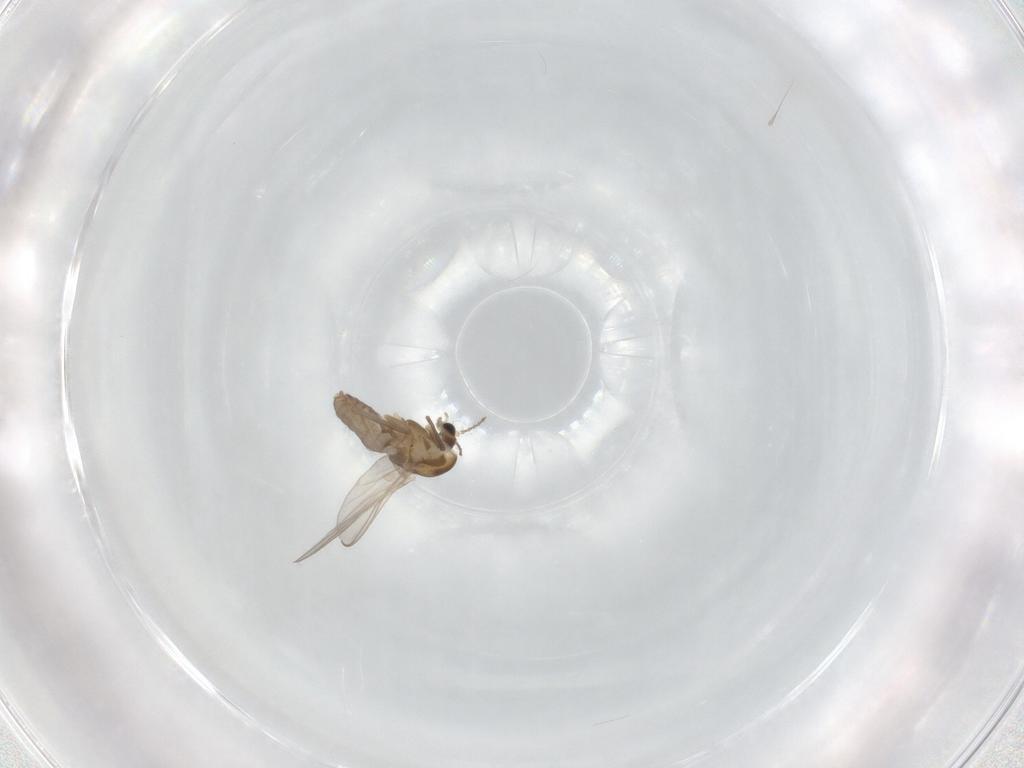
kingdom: Animalia
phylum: Arthropoda
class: Insecta
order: Diptera
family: Chironomidae
